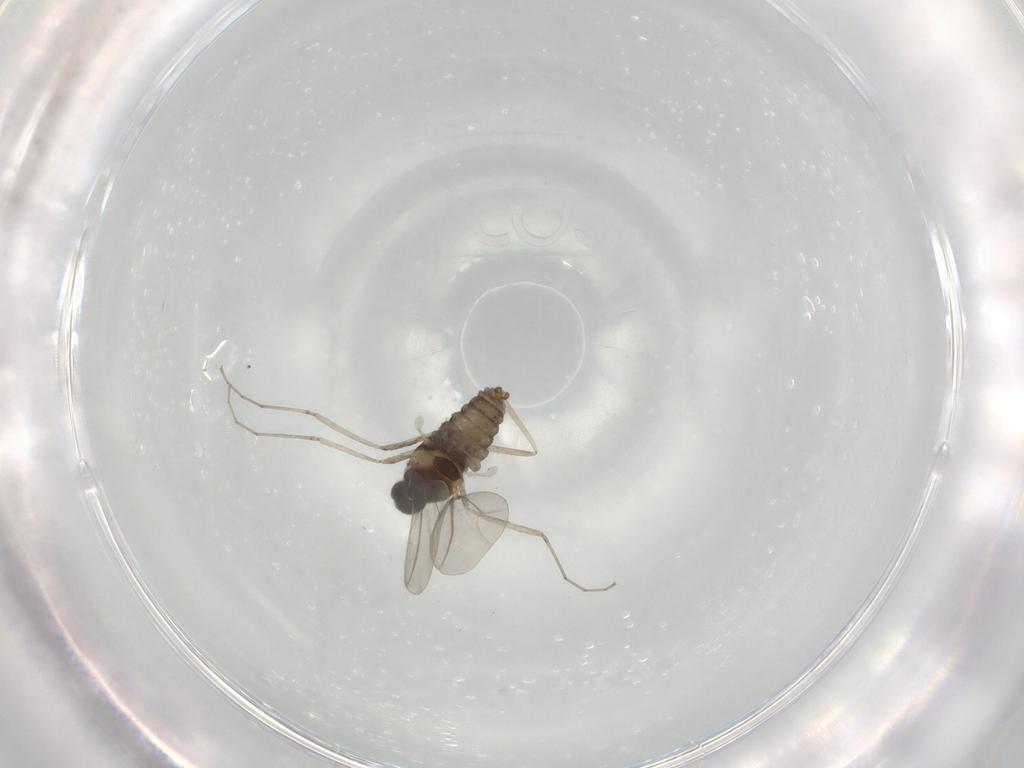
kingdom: Animalia
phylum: Arthropoda
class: Insecta
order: Diptera
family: Cecidomyiidae
